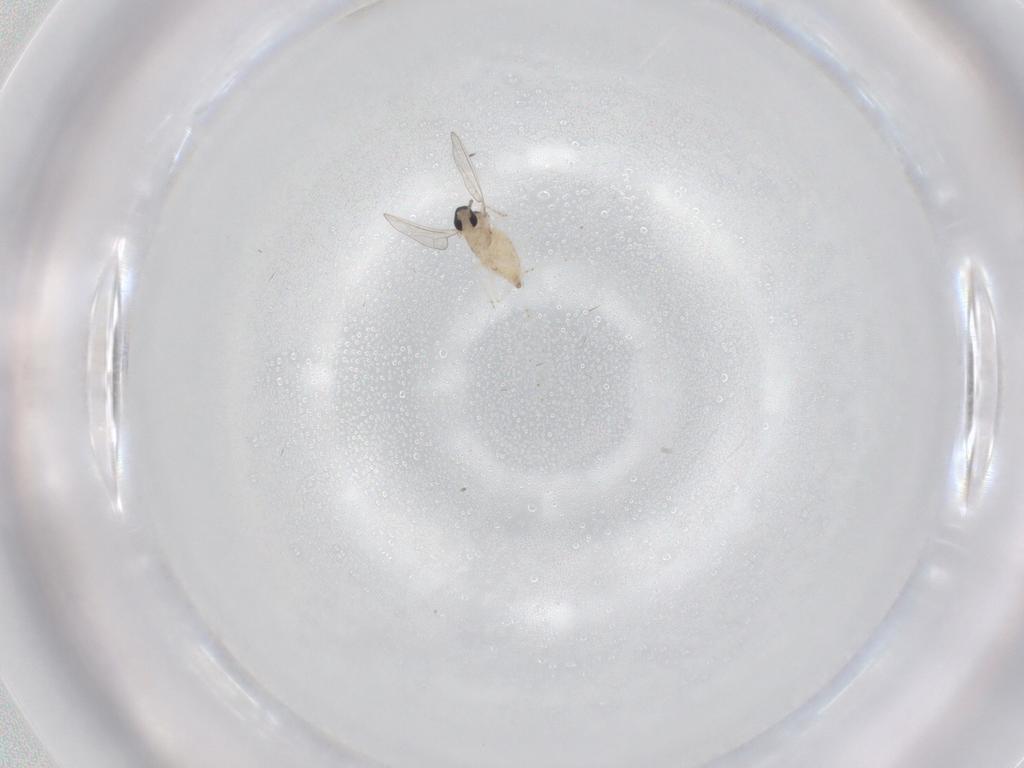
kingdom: Animalia
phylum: Arthropoda
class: Insecta
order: Diptera
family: Cecidomyiidae
